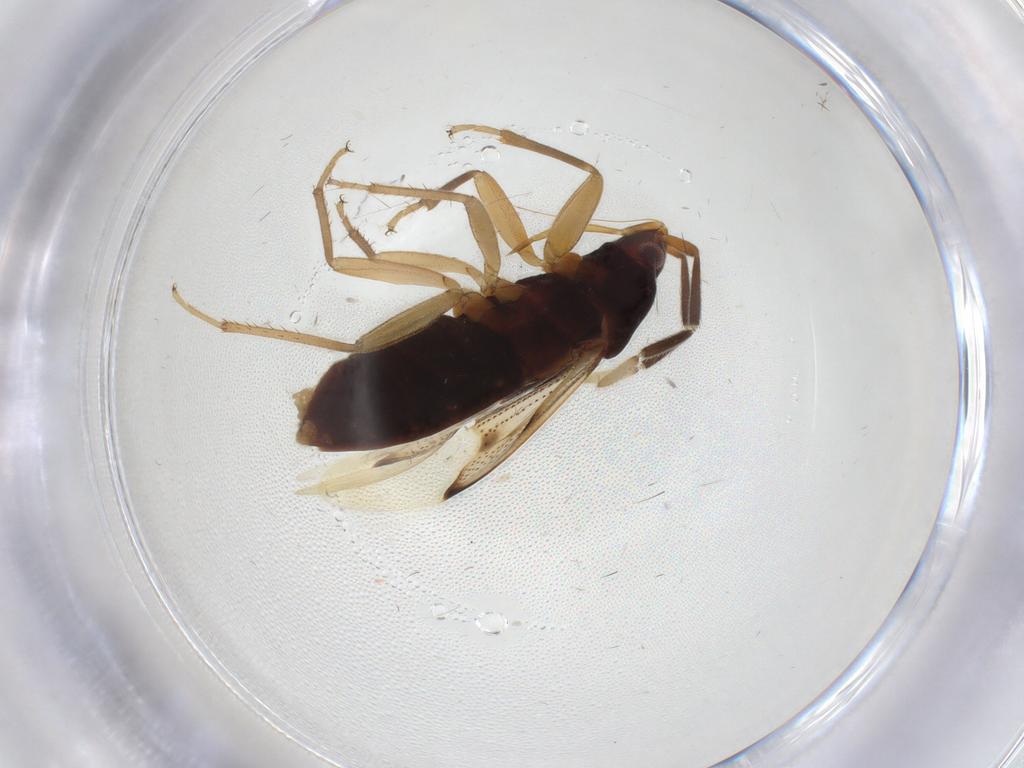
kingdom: Animalia
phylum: Arthropoda
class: Insecta
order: Hemiptera
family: Rhyparochromidae
